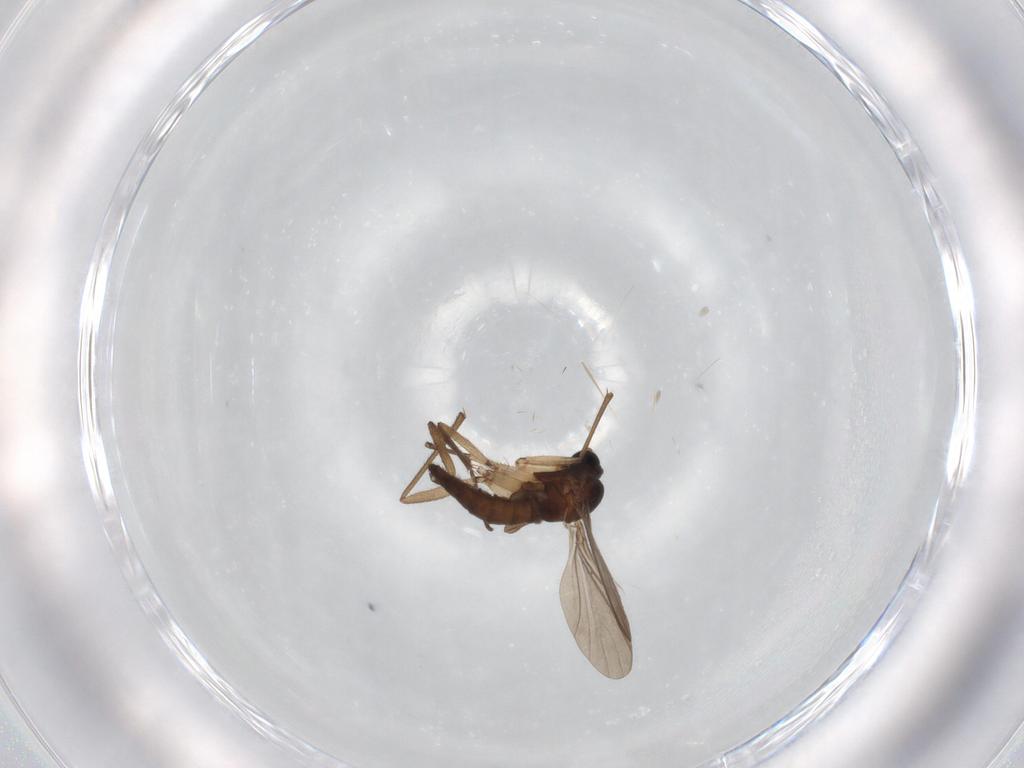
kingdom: Animalia
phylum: Arthropoda
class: Insecta
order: Diptera
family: Sciaridae
